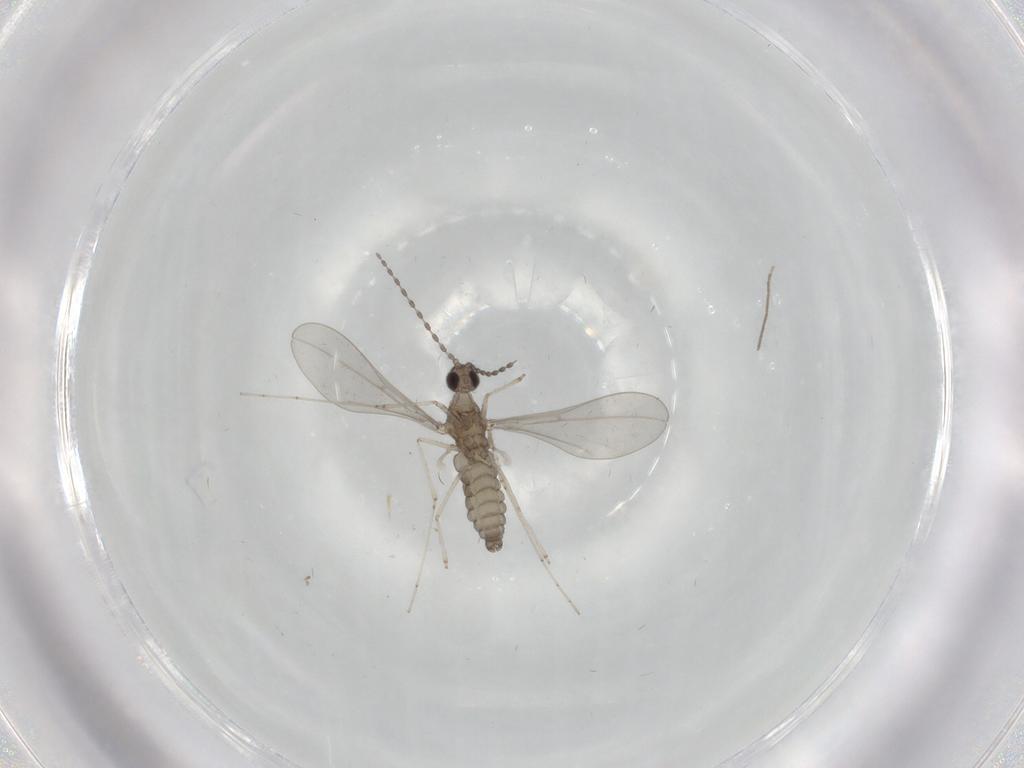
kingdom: Animalia
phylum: Arthropoda
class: Insecta
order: Diptera
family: Cecidomyiidae
